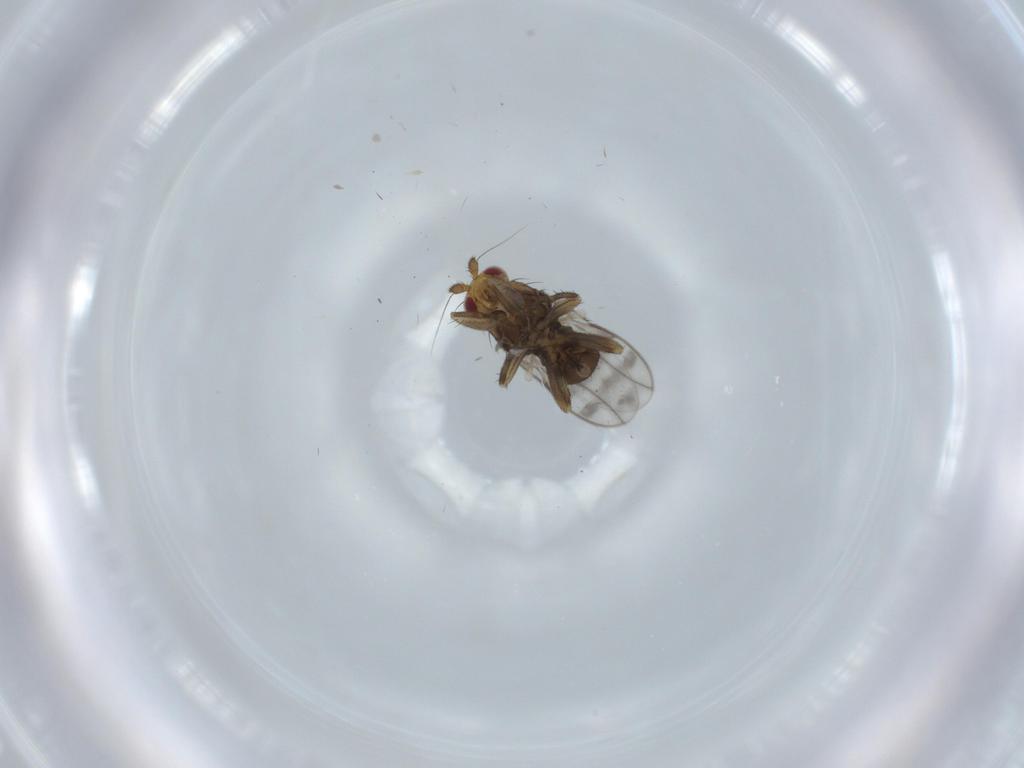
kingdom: Animalia
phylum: Arthropoda
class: Insecta
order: Diptera
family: Sphaeroceridae
